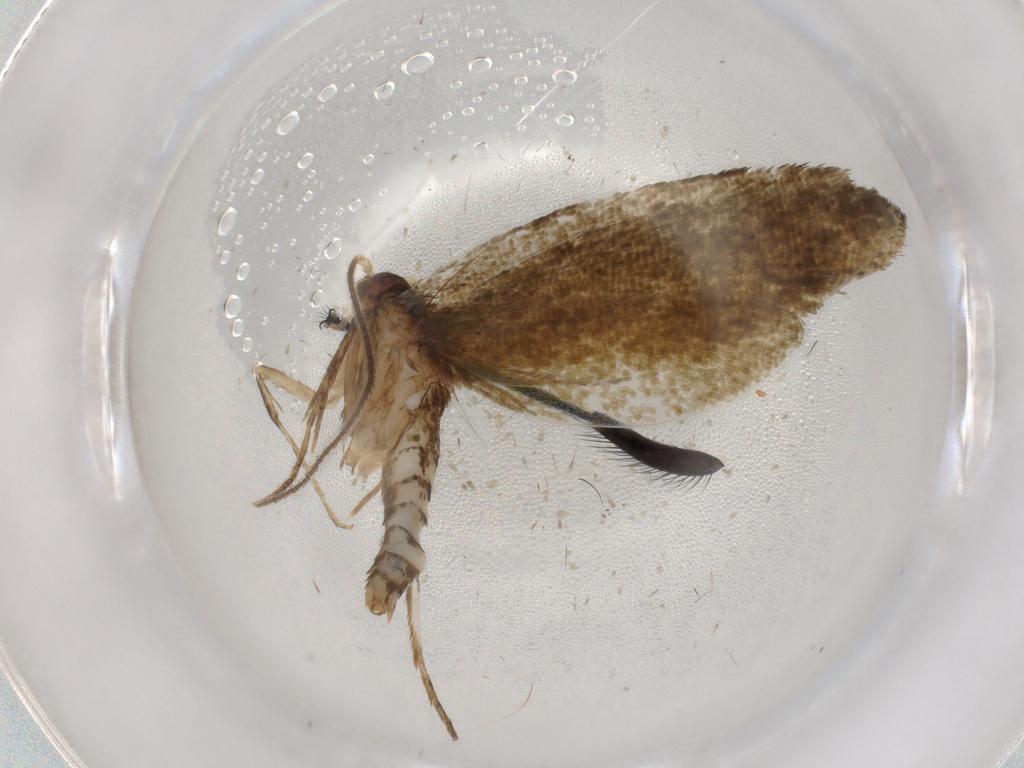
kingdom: Animalia
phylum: Arthropoda
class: Insecta
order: Lepidoptera
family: Tineidae
